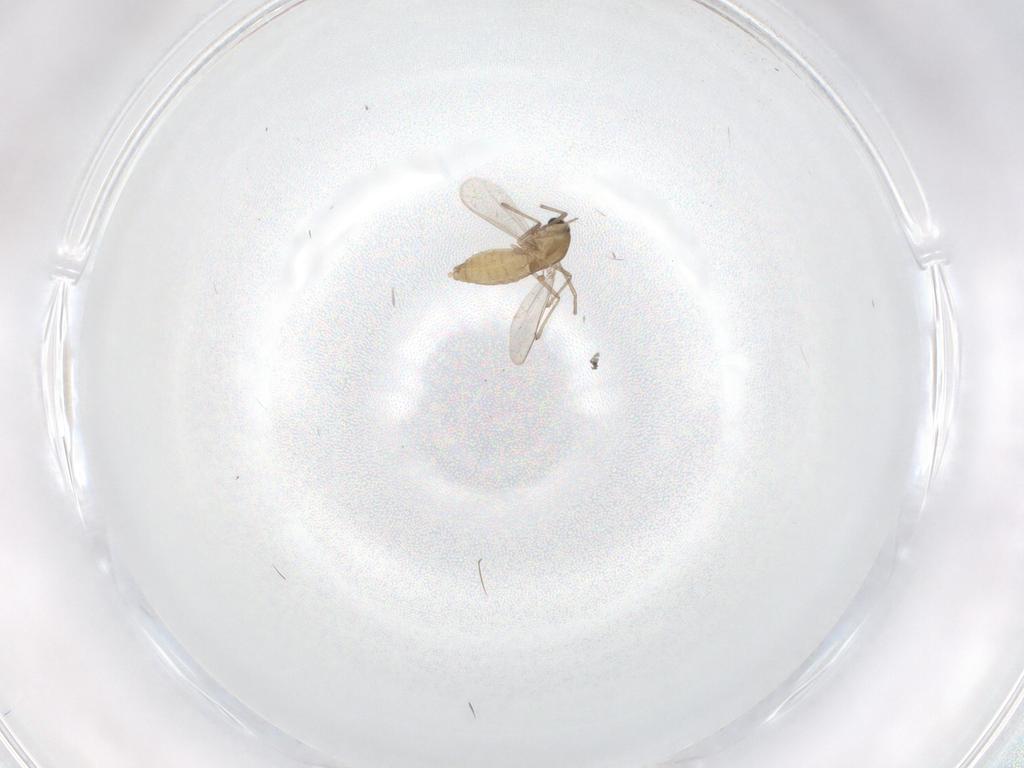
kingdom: Animalia
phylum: Arthropoda
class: Insecta
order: Diptera
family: Chironomidae
